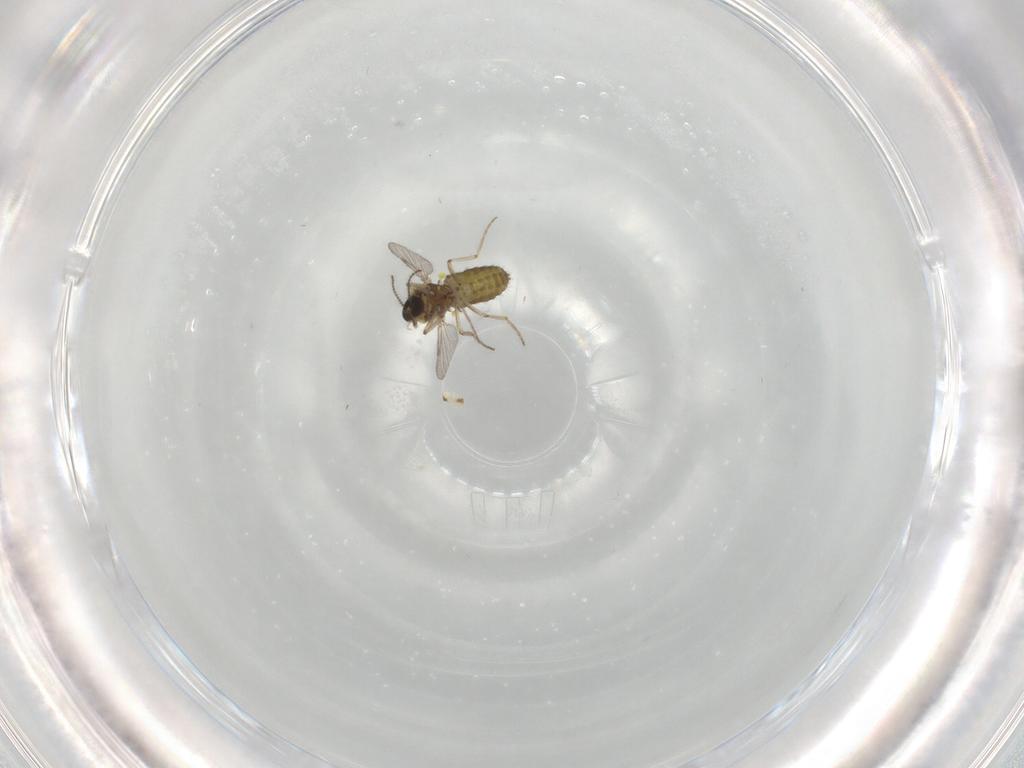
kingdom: Animalia
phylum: Arthropoda
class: Insecta
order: Diptera
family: Ceratopogonidae
